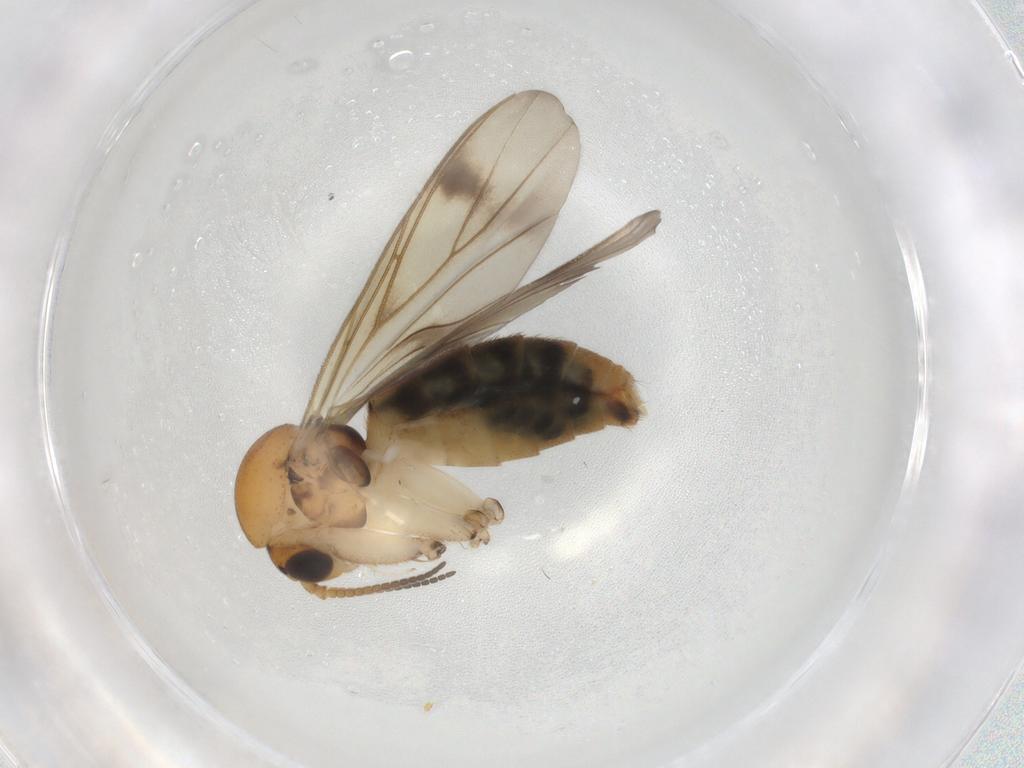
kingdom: Animalia
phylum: Arthropoda
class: Insecta
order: Diptera
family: Mycetophilidae
